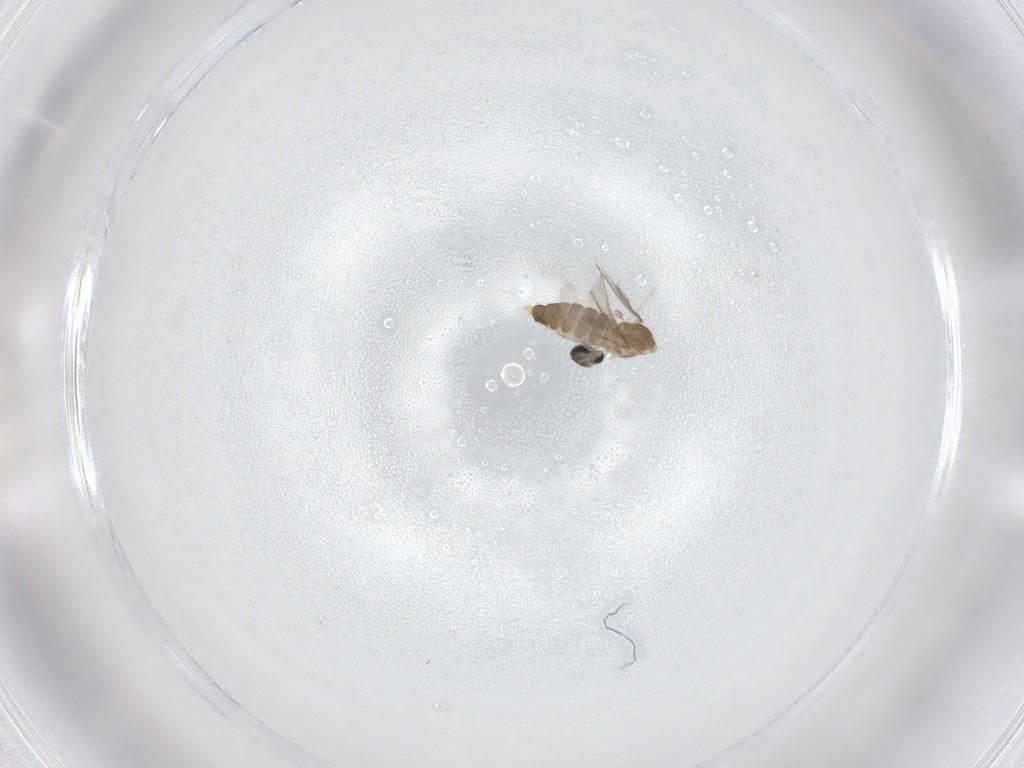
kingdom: Animalia
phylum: Arthropoda
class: Insecta
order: Diptera
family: Cecidomyiidae
